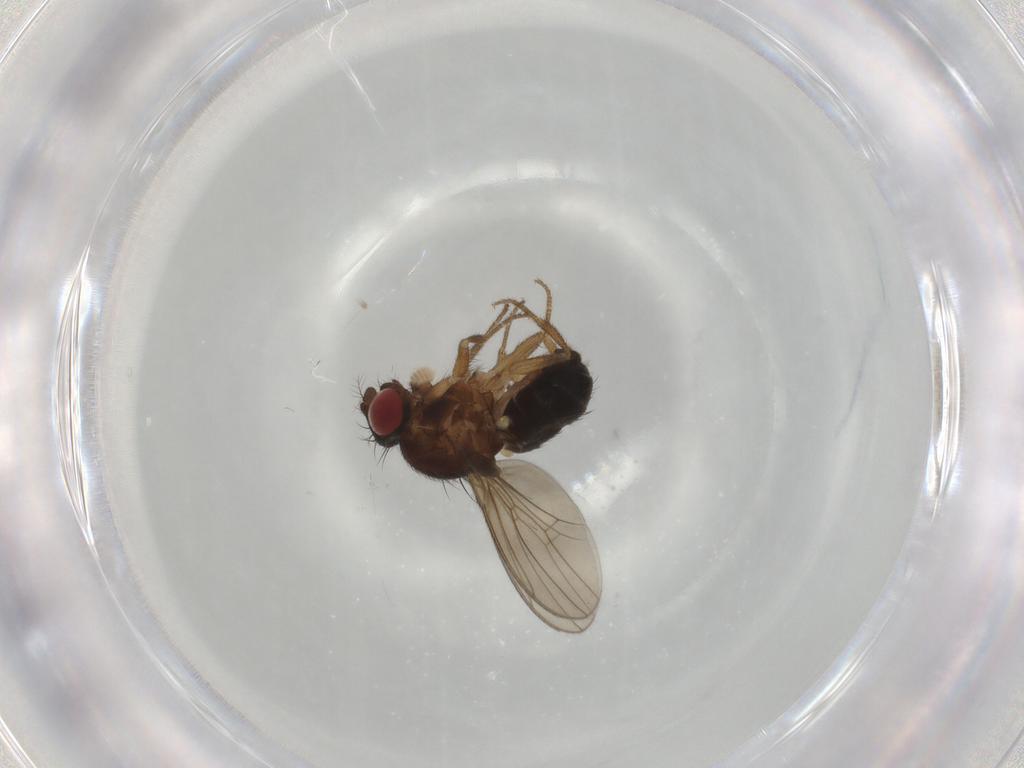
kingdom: Animalia
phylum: Arthropoda
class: Insecta
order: Diptera
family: Drosophilidae
